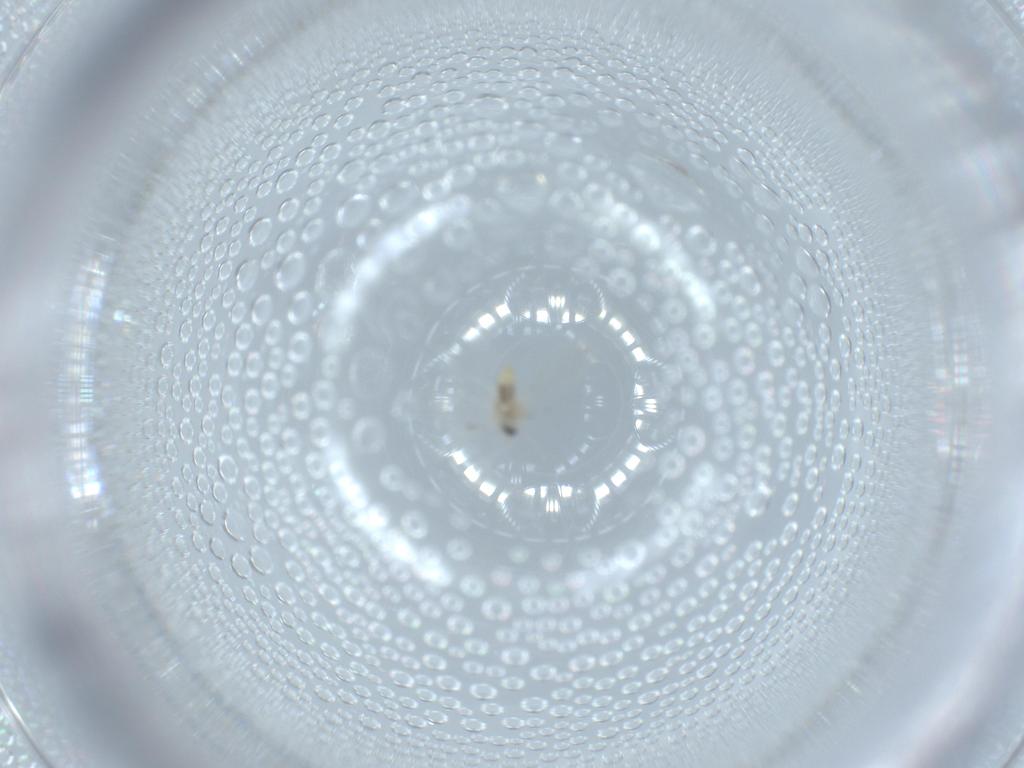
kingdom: Animalia
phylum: Arthropoda
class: Insecta
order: Diptera
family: Cecidomyiidae
